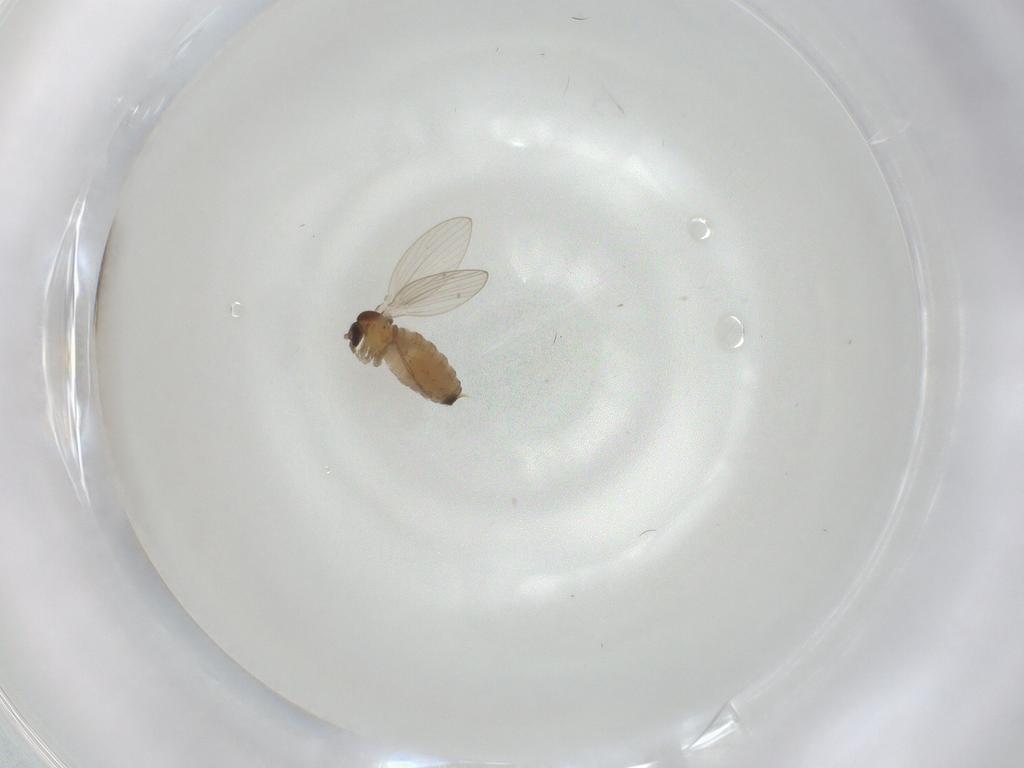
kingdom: Animalia
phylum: Arthropoda
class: Insecta
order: Diptera
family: Psychodidae
